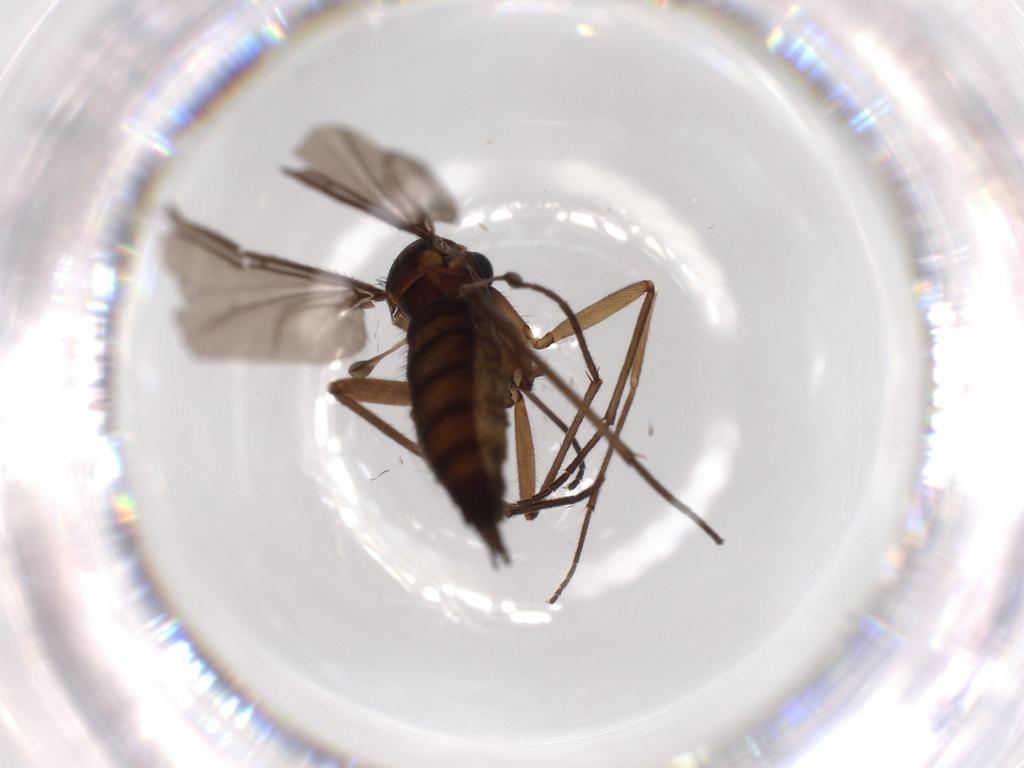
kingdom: Animalia
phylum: Arthropoda
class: Insecta
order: Diptera
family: Sciaridae
